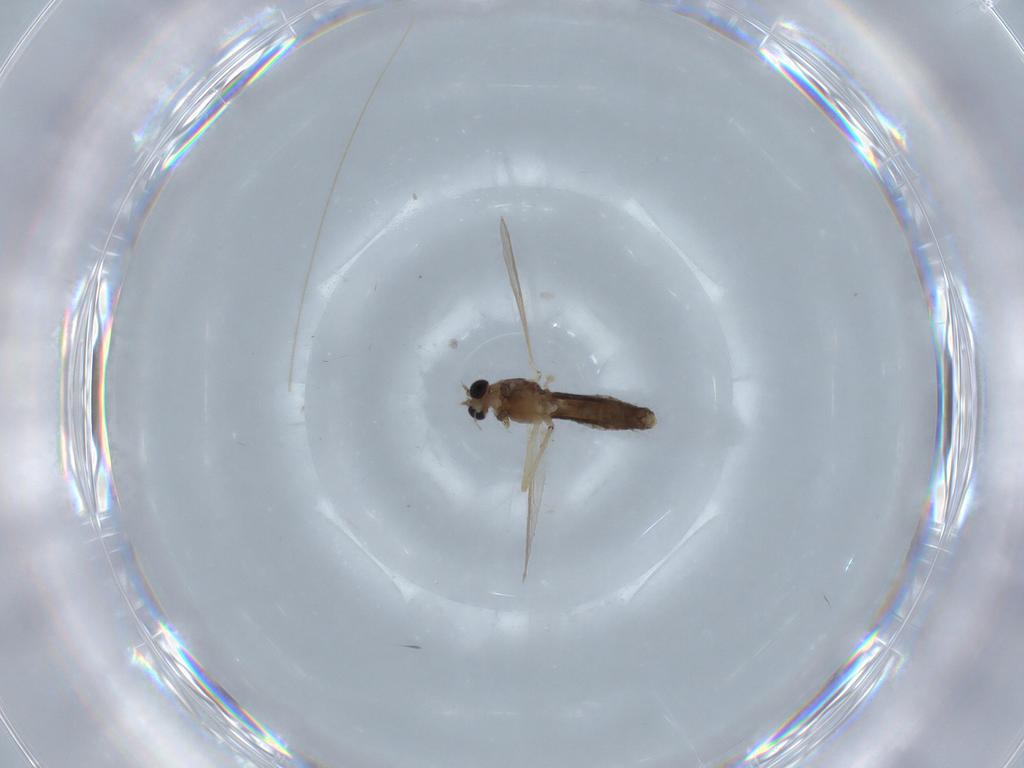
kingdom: Animalia
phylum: Arthropoda
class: Insecta
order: Diptera
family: Chironomidae
